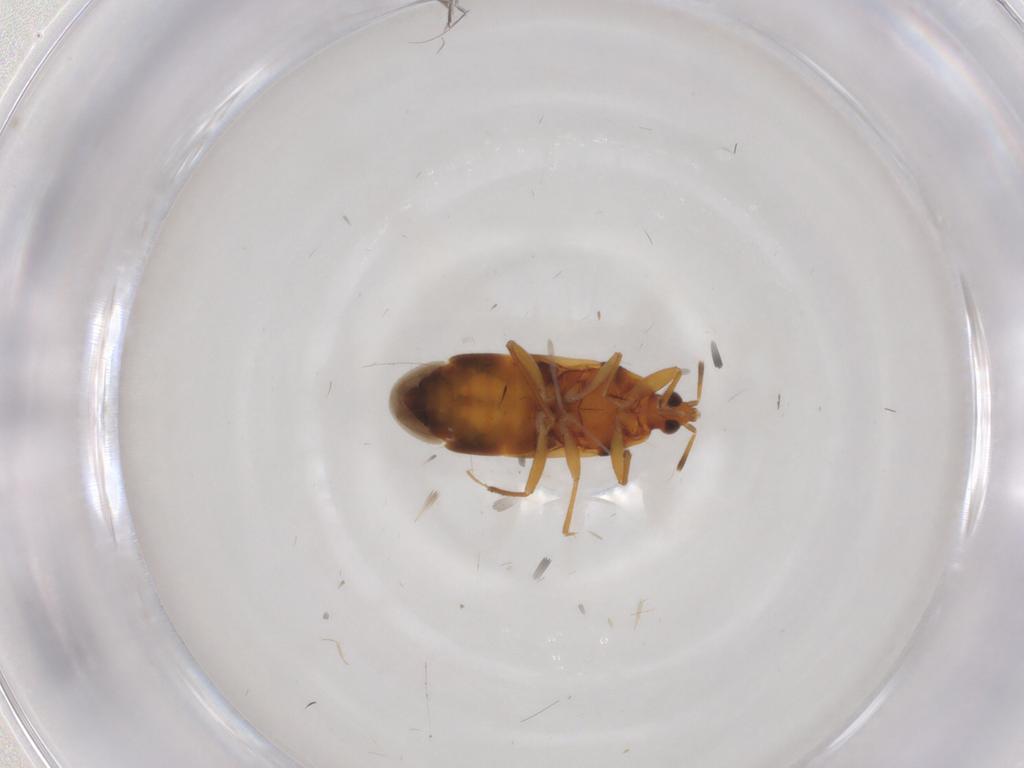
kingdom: Animalia
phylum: Arthropoda
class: Insecta
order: Hemiptera
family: Anthocoridae
